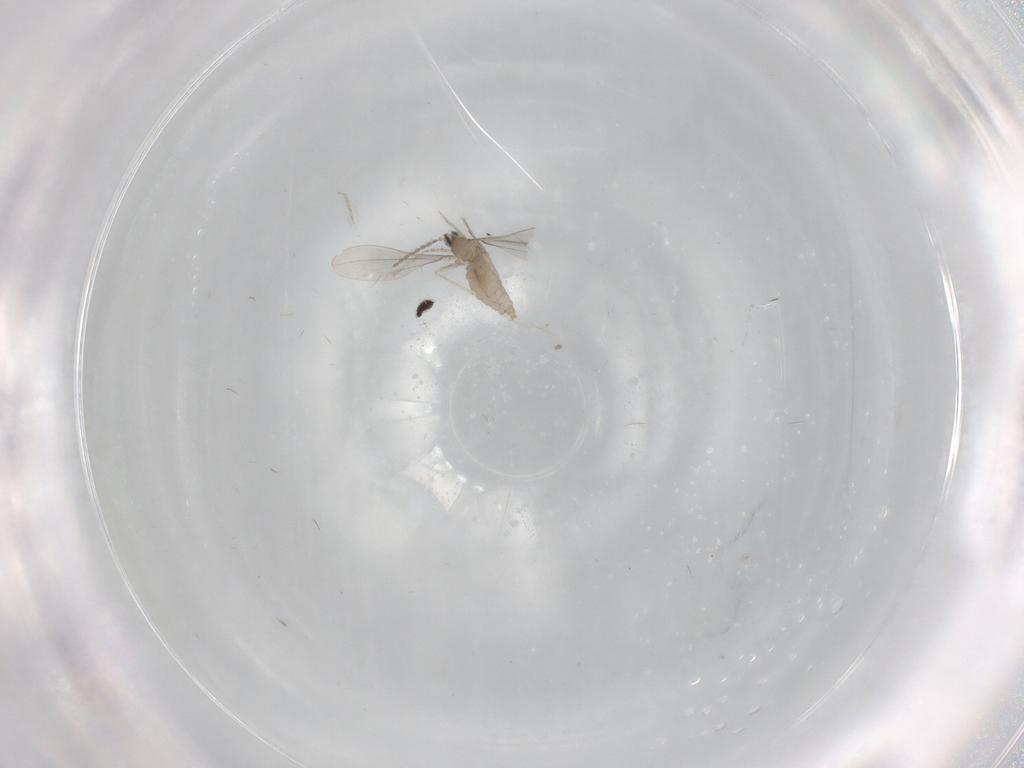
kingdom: Animalia
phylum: Arthropoda
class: Insecta
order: Diptera
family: Cecidomyiidae
